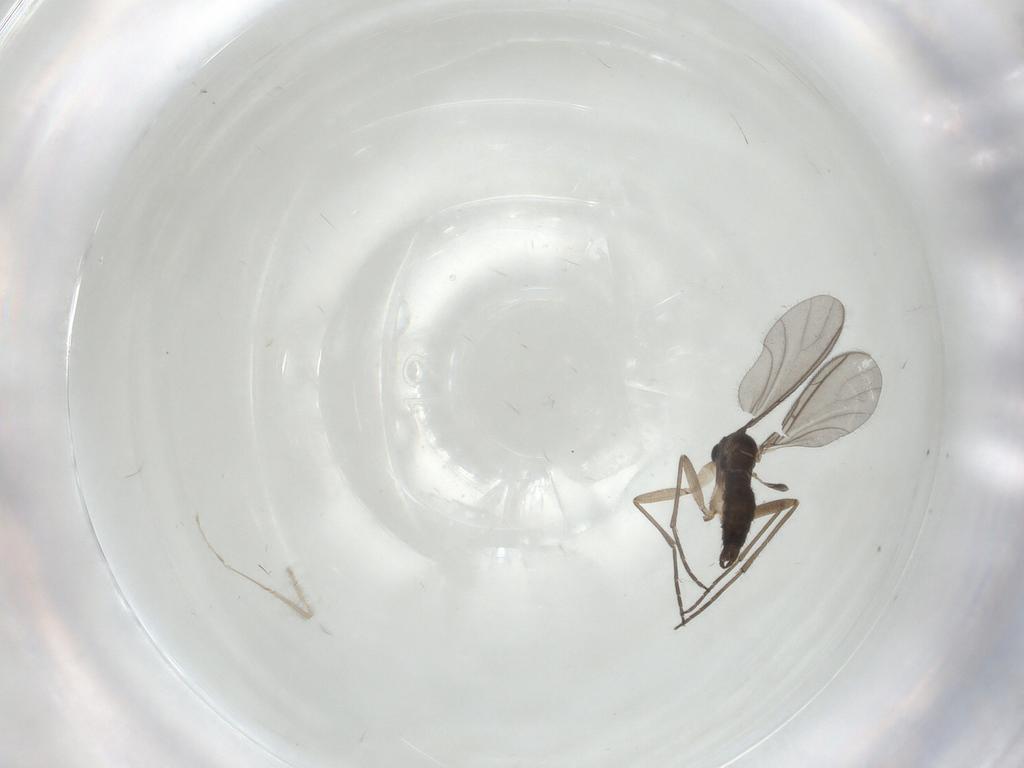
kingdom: Animalia
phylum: Arthropoda
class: Insecta
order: Diptera
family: Sciaridae
